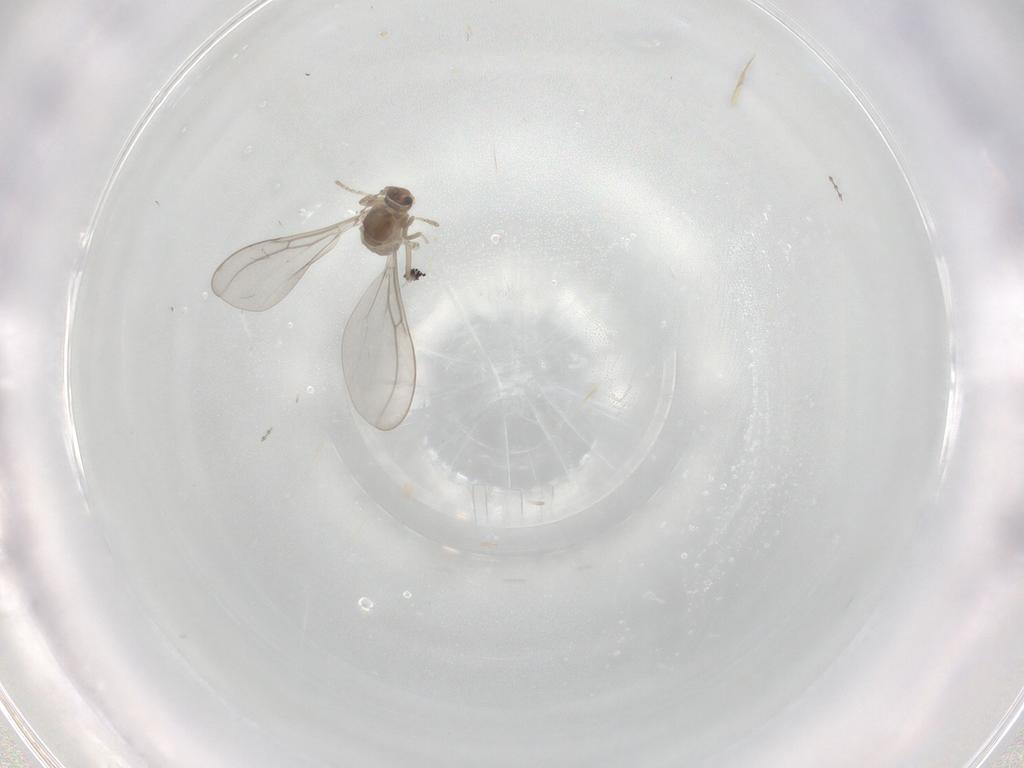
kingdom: Animalia
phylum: Arthropoda
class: Insecta
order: Diptera
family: Cecidomyiidae
